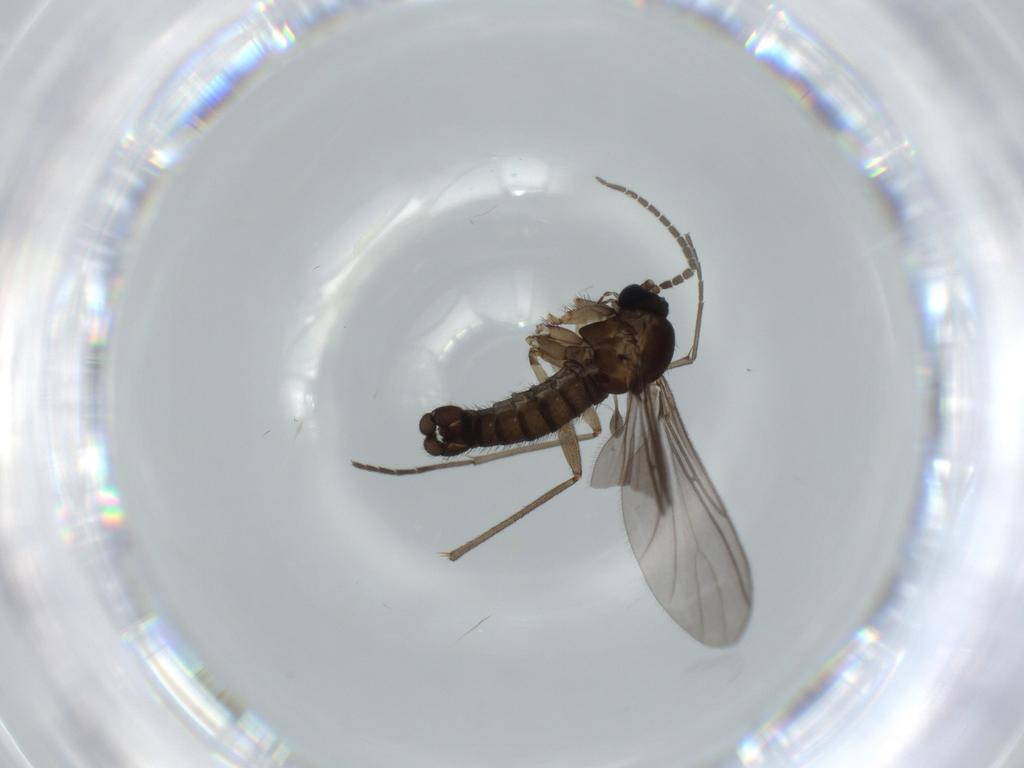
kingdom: Animalia
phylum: Arthropoda
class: Insecta
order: Diptera
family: Sciaridae
